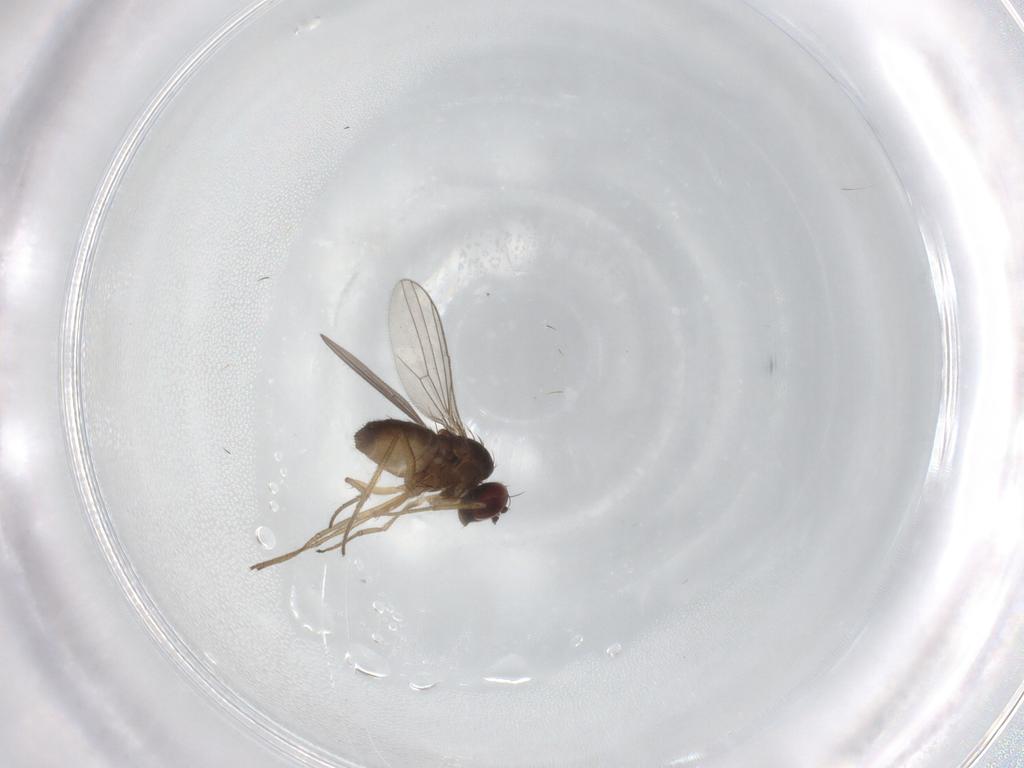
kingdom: Animalia
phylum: Arthropoda
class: Insecta
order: Diptera
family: Dolichopodidae
